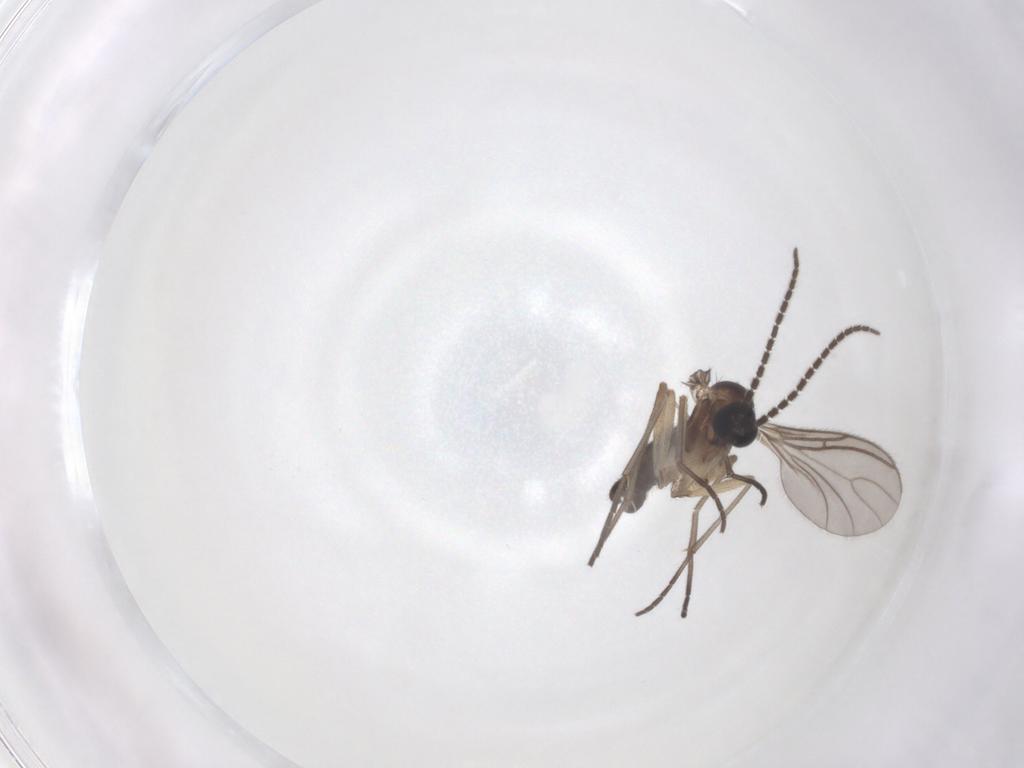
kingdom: Animalia
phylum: Arthropoda
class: Insecta
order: Diptera
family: Sciaridae
